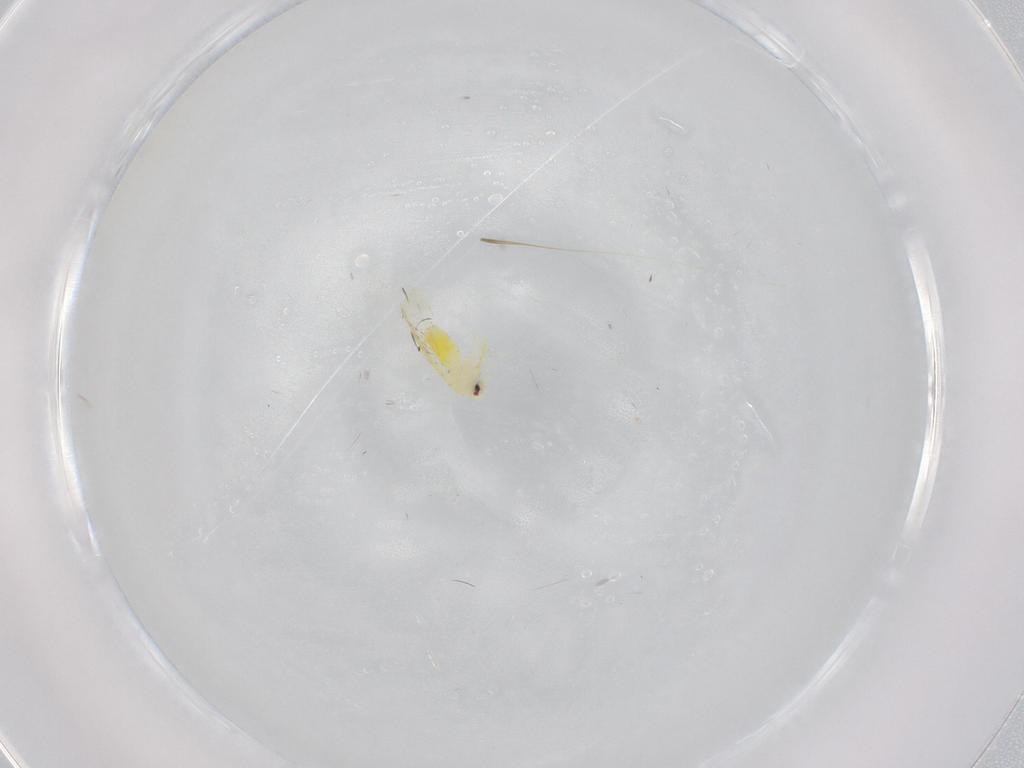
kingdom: Animalia
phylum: Arthropoda
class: Insecta
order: Hemiptera
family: Aleyrodidae
